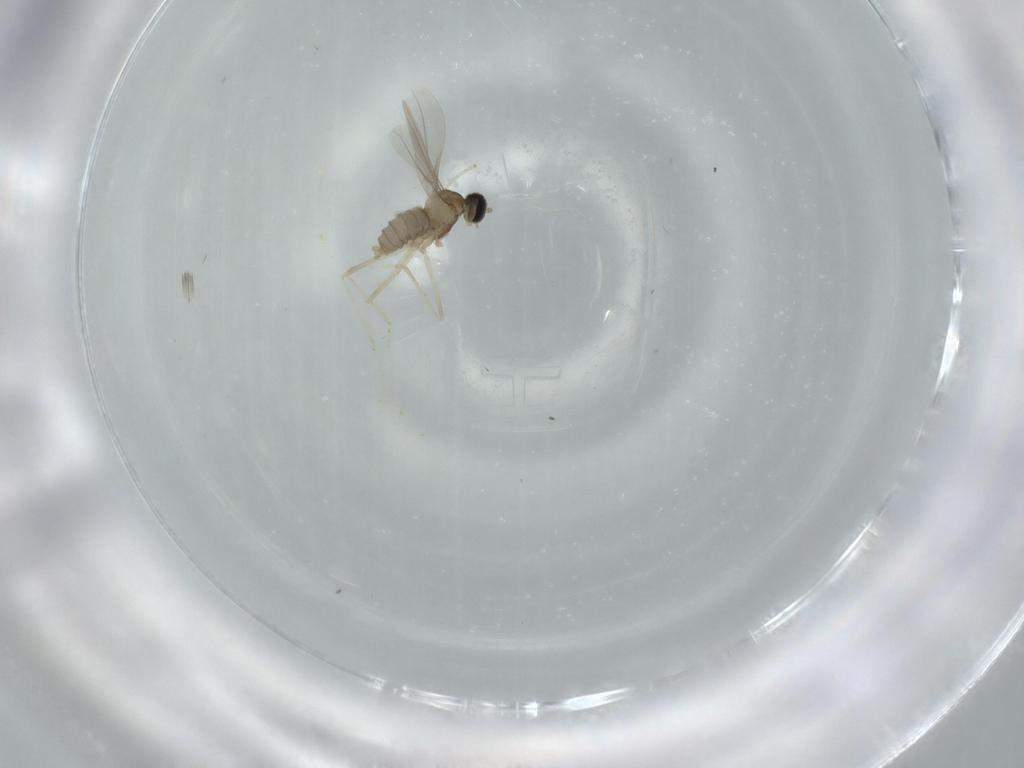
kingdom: Animalia
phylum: Arthropoda
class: Insecta
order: Diptera
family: Cecidomyiidae
